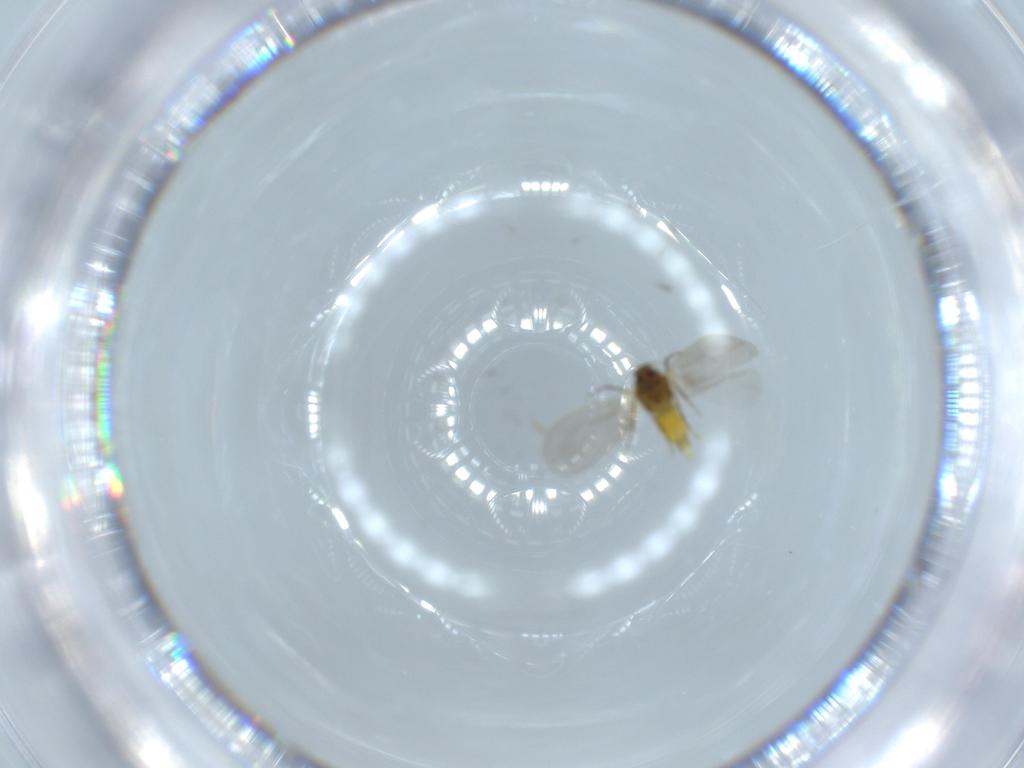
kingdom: Animalia
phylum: Arthropoda
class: Insecta
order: Hemiptera
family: Aleyrodidae
